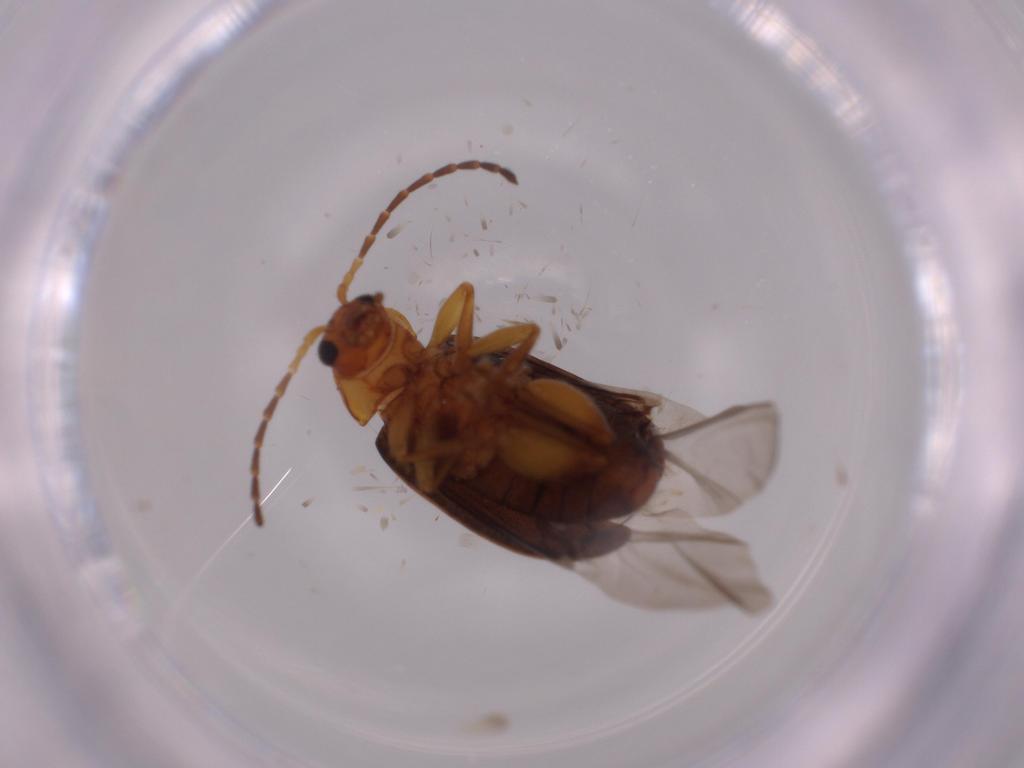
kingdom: Animalia
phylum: Arthropoda
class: Insecta
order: Coleoptera
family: Chrysomelidae
